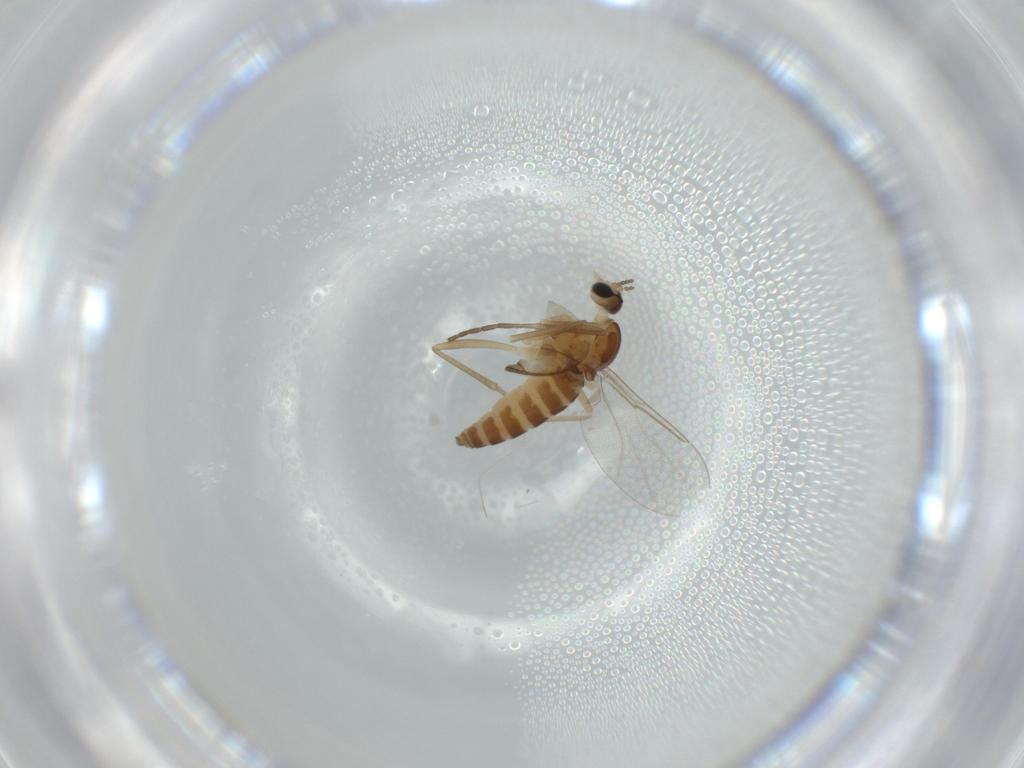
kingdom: Animalia
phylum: Arthropoda
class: Insecta
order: Diptera
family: Cecidomyiidae
